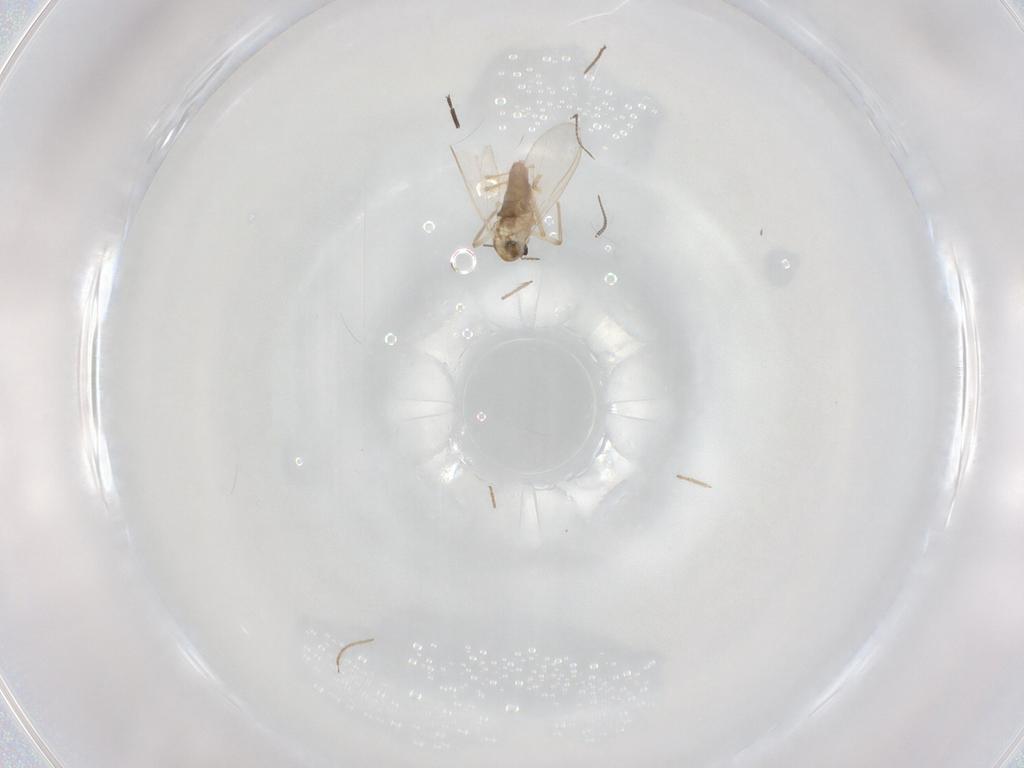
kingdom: Animalia
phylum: Arthropoda
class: Insecta
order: Diptera
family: Chironomidae
